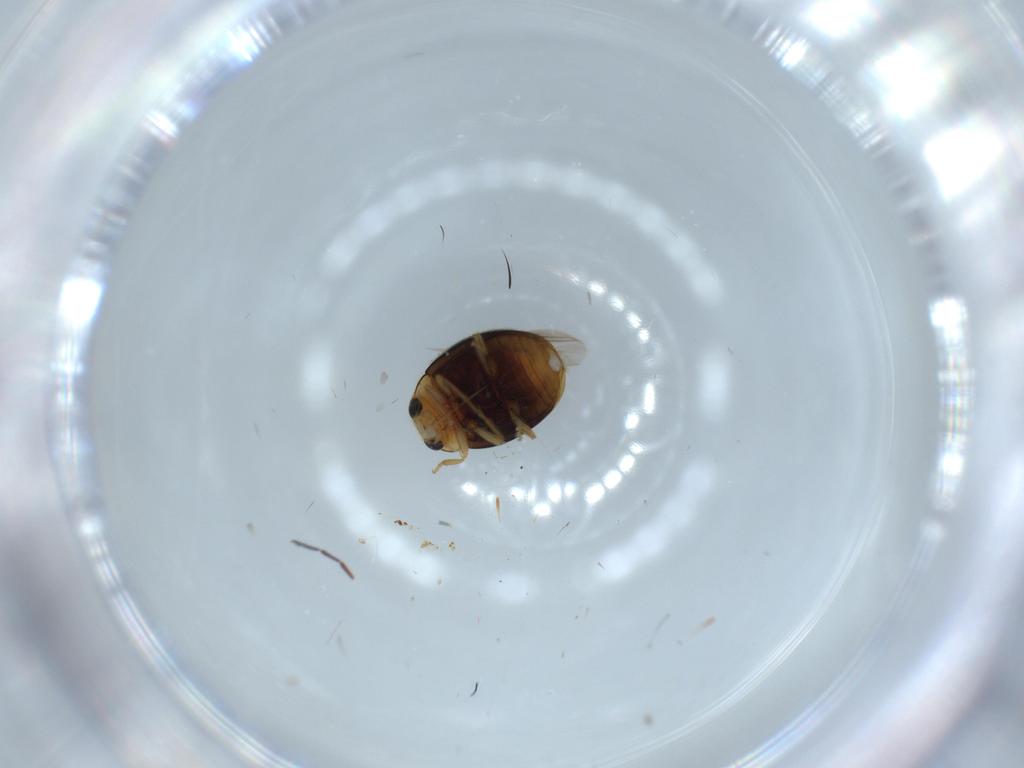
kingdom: Animalia
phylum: Arthropoda
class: Insecta
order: Coleoptera
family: Coccinellidae
